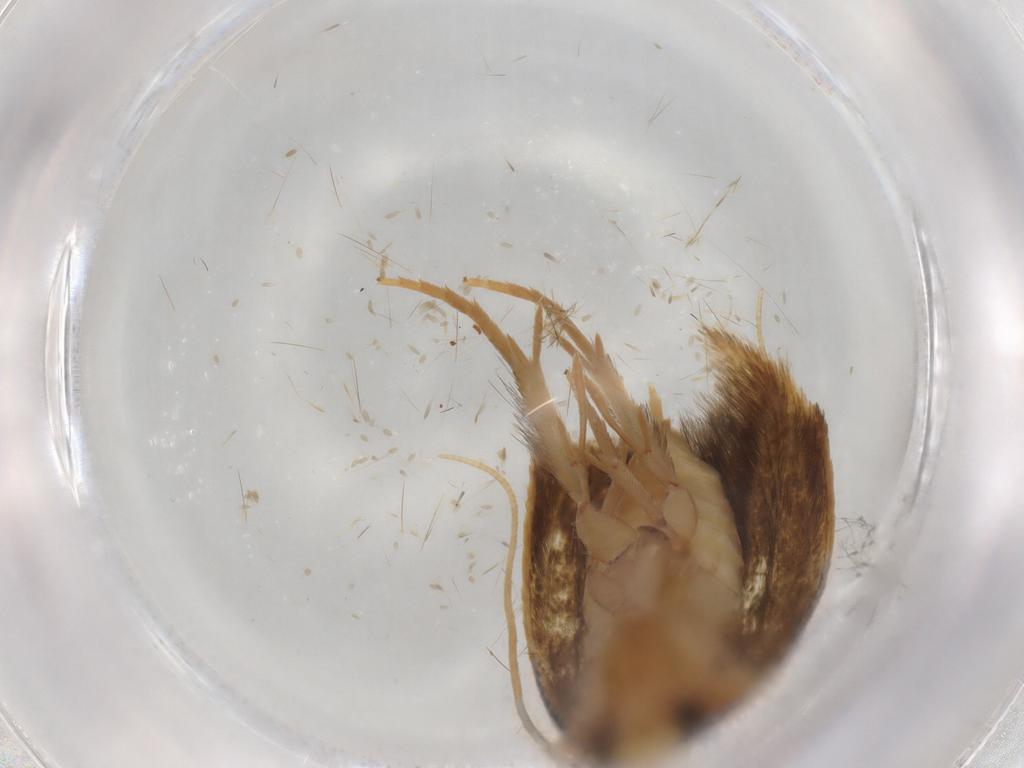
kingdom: Animalia
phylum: Arthropoda
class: Insecta
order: Lepidoptera
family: Tineidae
